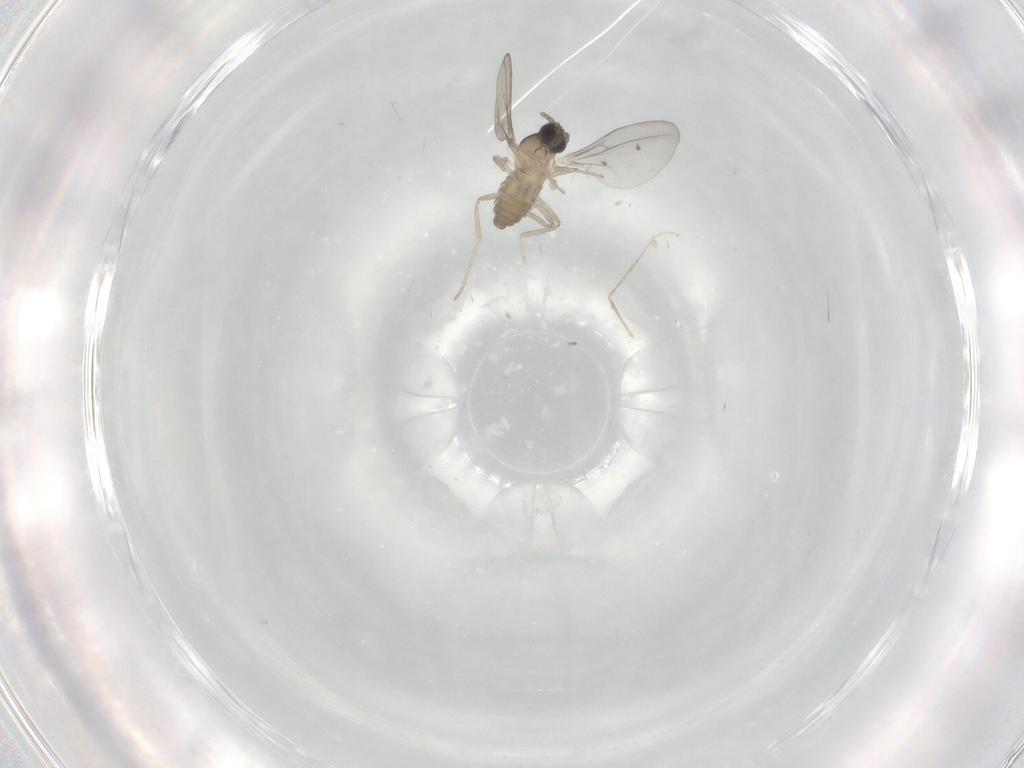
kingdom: Animalia
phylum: Arthropoda
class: Insecta
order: Diptera
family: Cecidomyiidae
